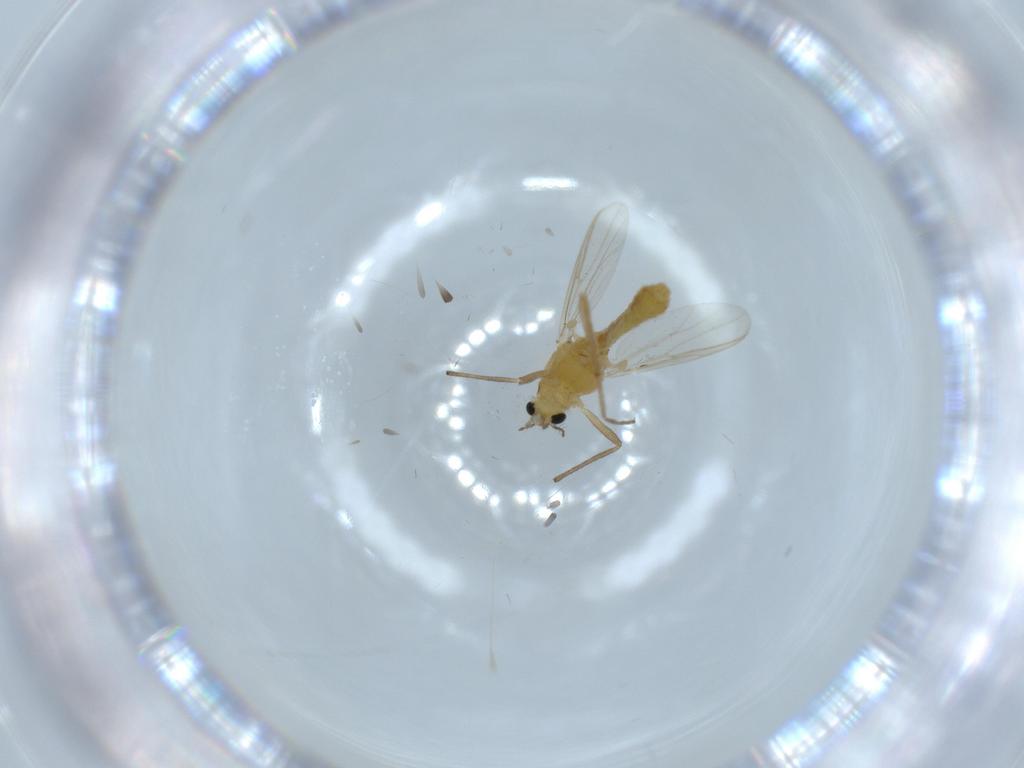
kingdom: Animalia
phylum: Arthropoda
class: Insecta
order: Diptera
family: Chironomidae
